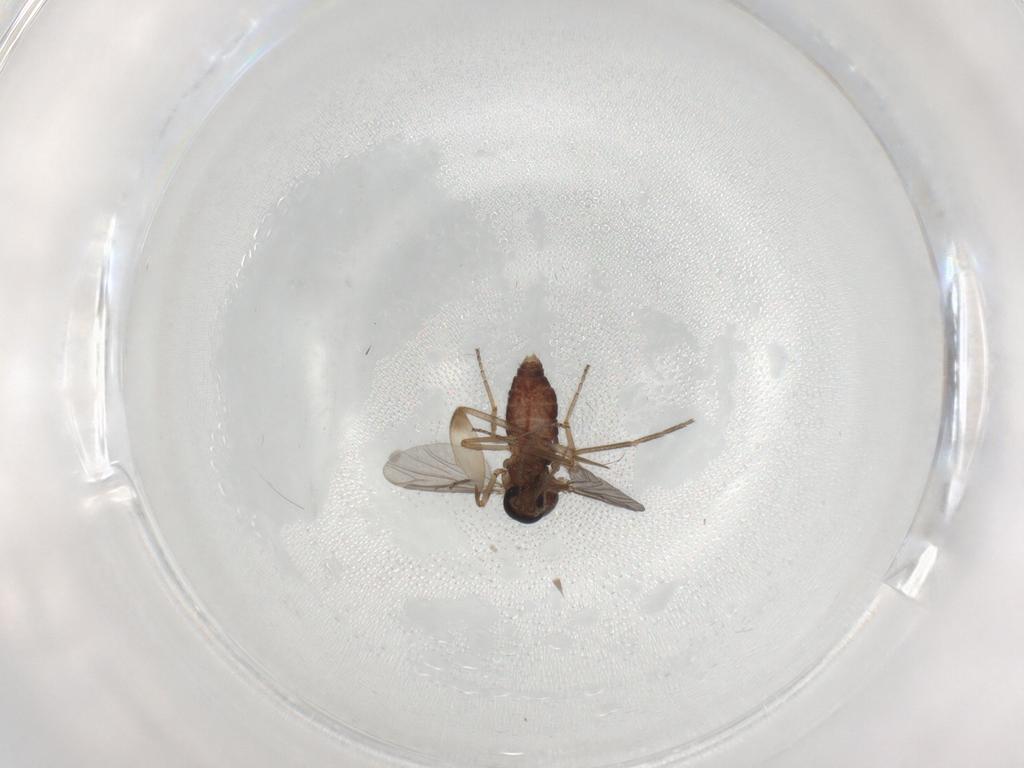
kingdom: Animalia
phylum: Arthropoda
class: Insecta
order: Diptera
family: Ceratopogonidae
